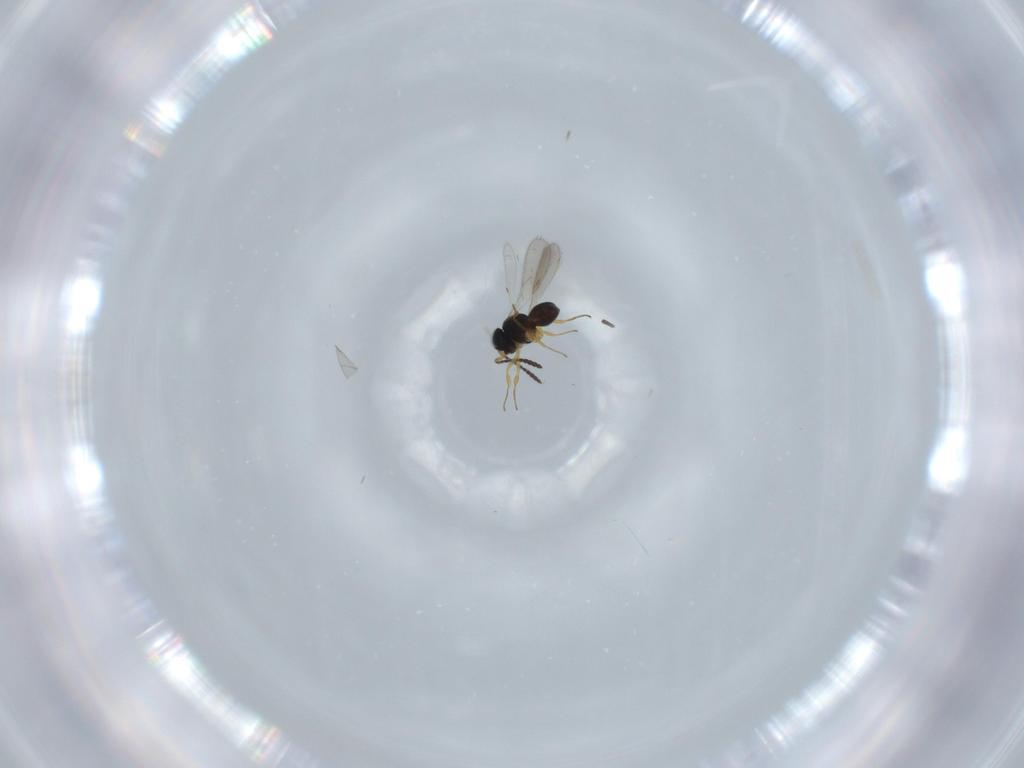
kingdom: Animalia
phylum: Arthropoda
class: Insecta
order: Hymenoptera
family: Scelionidae
